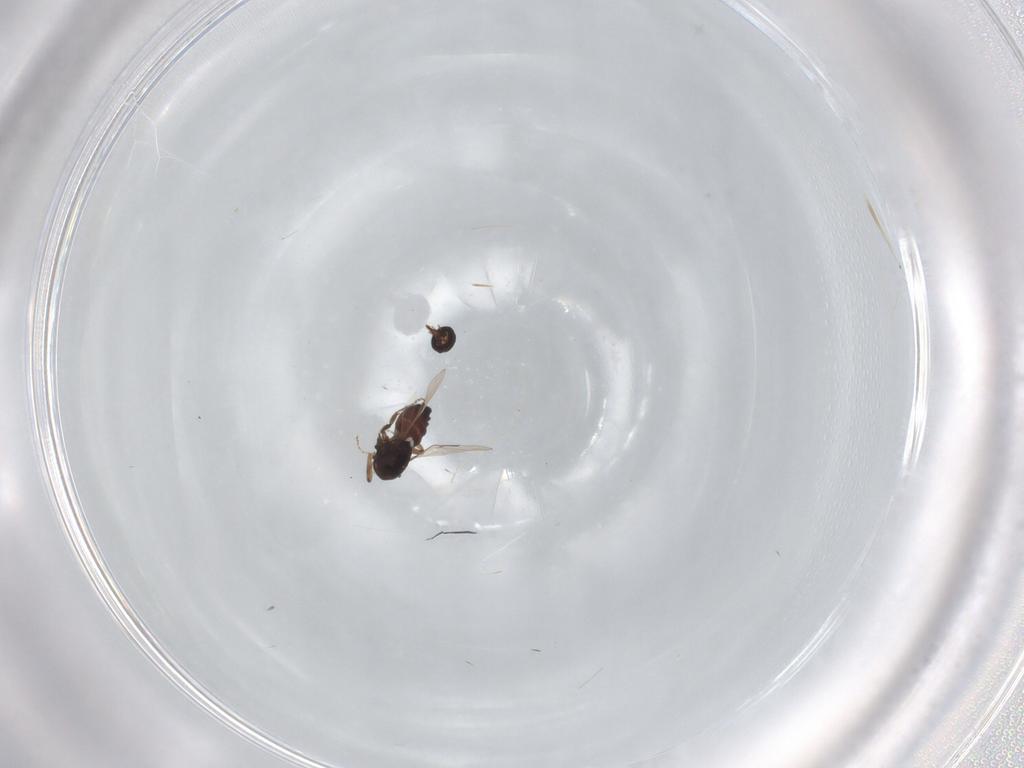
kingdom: Animalia
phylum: Arthropoda
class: Insecta
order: Diptera
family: Ceratopogonidae
